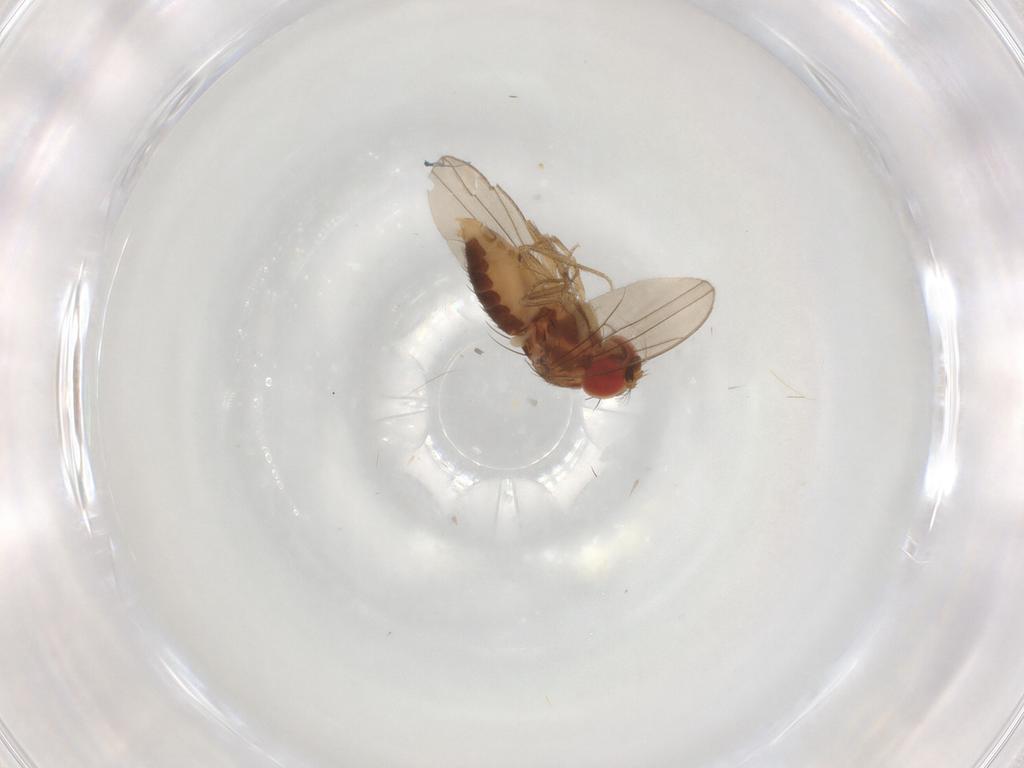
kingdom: Animalia
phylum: Arthropoda
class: Insecta
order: Diptera
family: Drosophilidae
